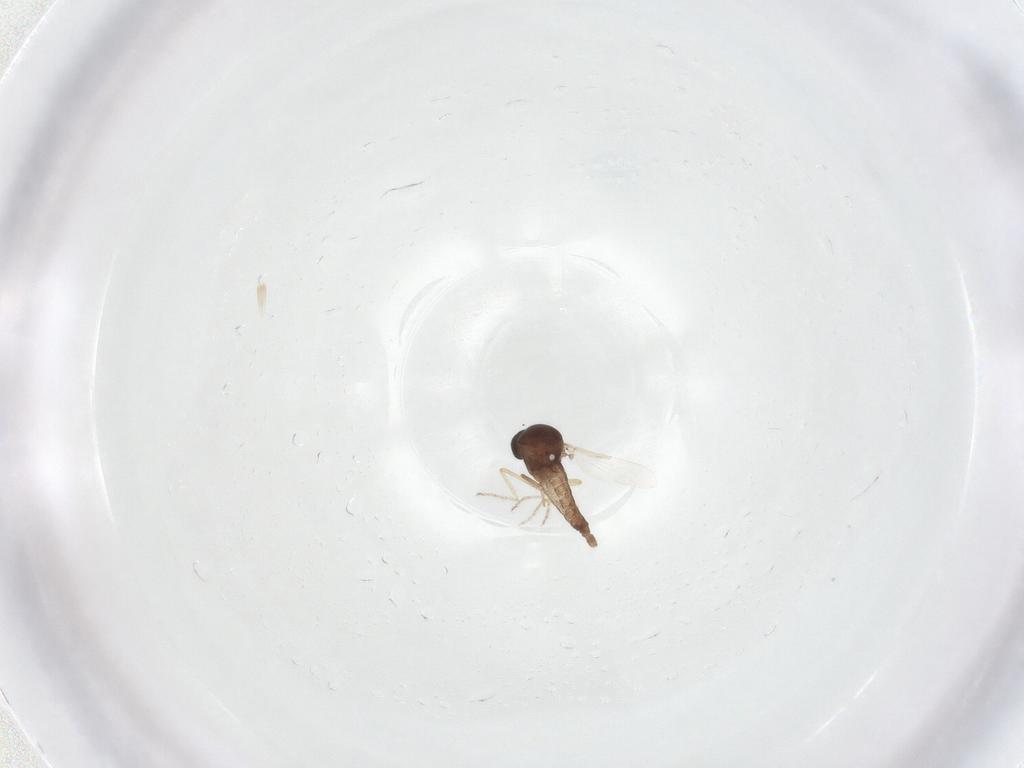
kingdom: Animalia
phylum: Arthropoda
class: Insecta
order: Diptera
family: Ceratopogonidae
